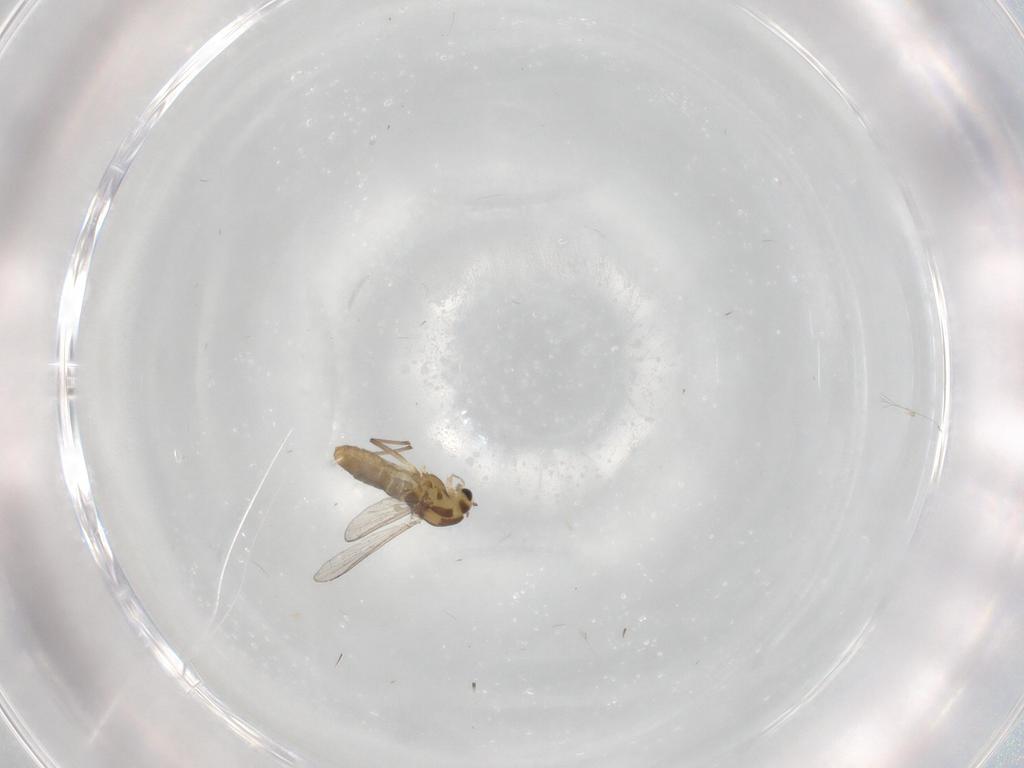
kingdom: Animalia
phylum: Arthropoda
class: Insecta
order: Diptera
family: Chironomidae
